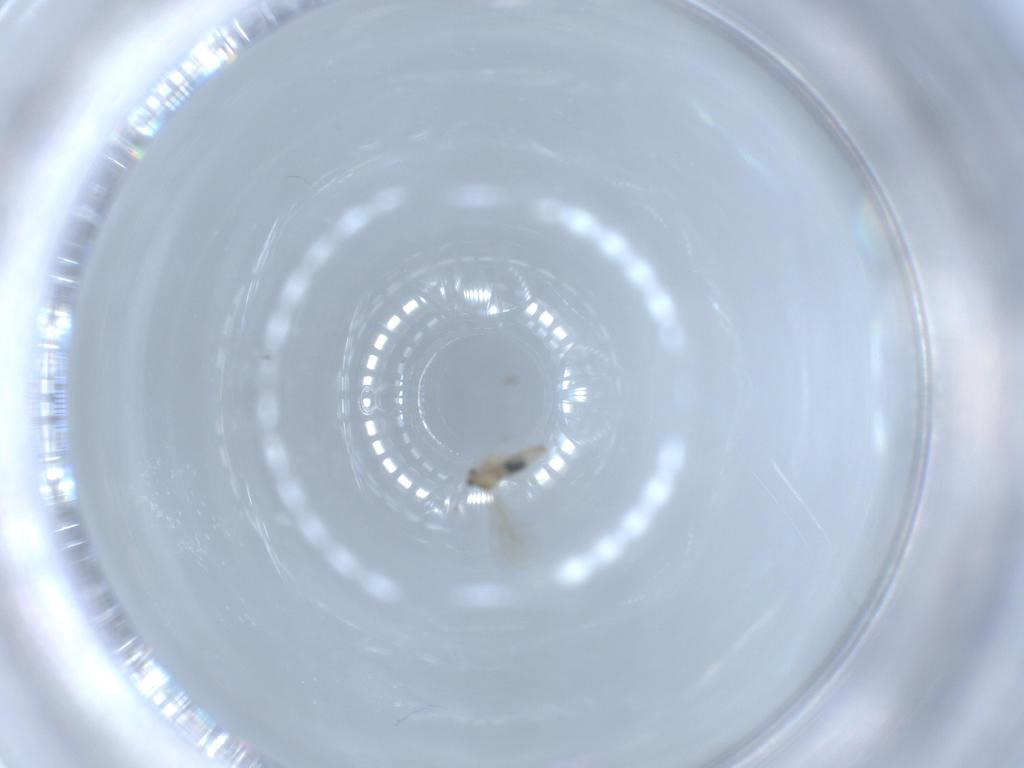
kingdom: Animalia
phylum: Arthropoda
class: Insecta
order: Diptera
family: Cecidomyiidae
